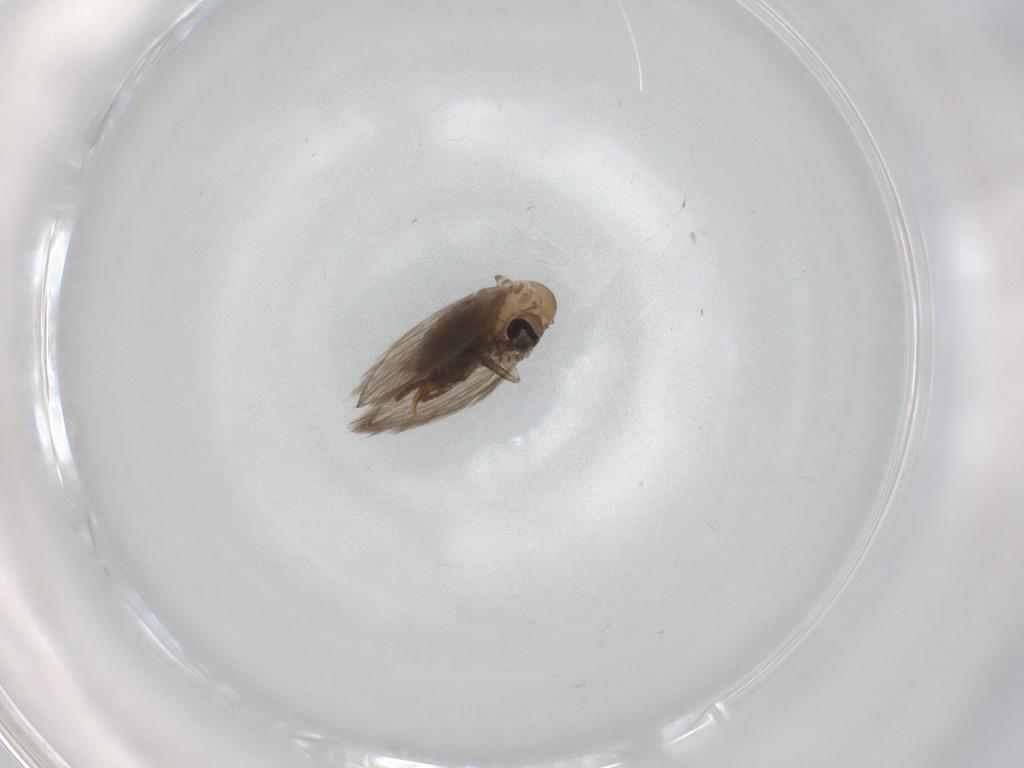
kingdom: Animalia
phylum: Arthropoda
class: Insecta
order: Diptera
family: Psychodidae
